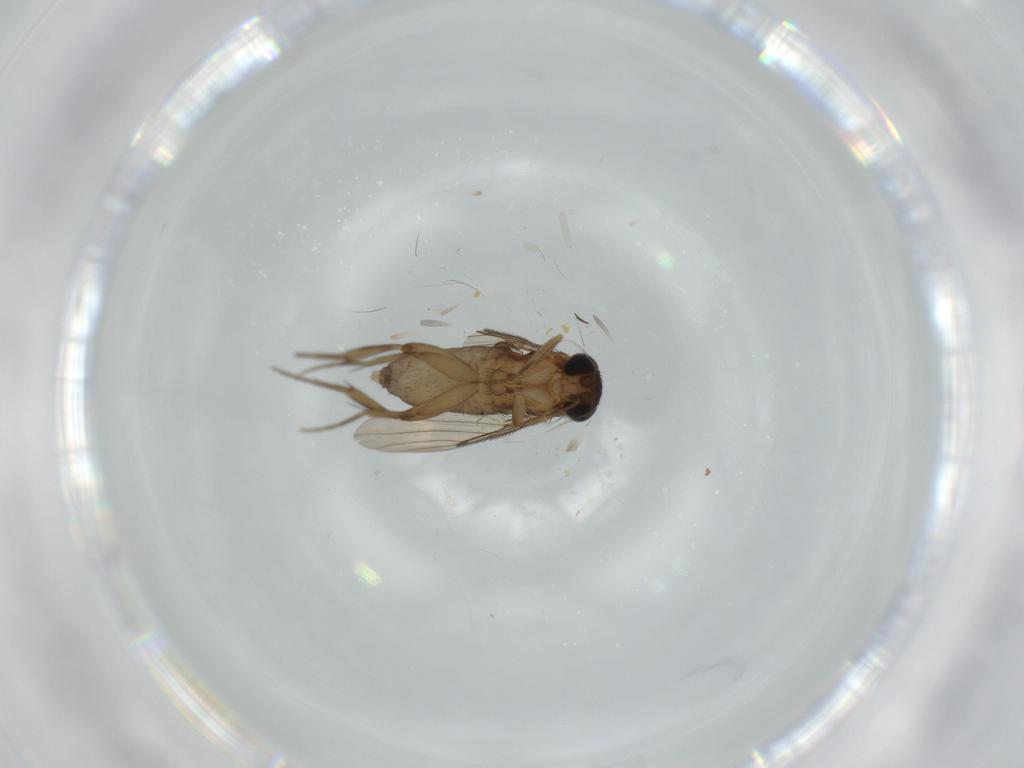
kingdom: Animalia
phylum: Arthropoda
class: Insecta
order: Diptera
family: Phoridae
